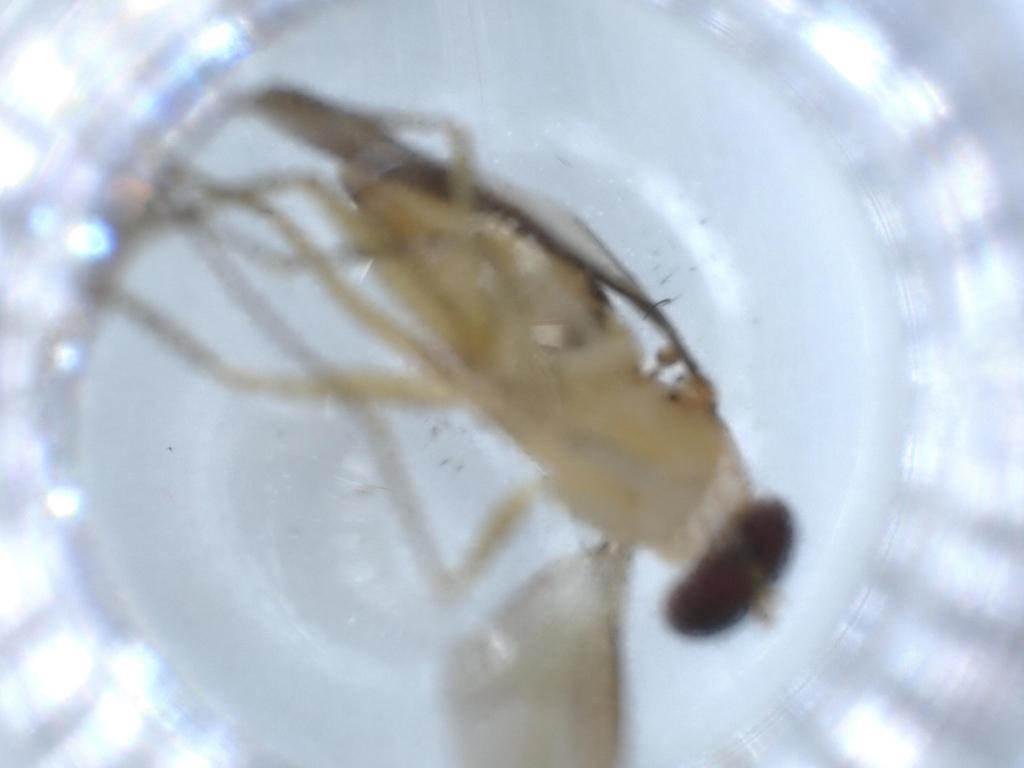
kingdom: Animalia
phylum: Arthropoda
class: Insecta
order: Diptera
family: Dolichopodidae
